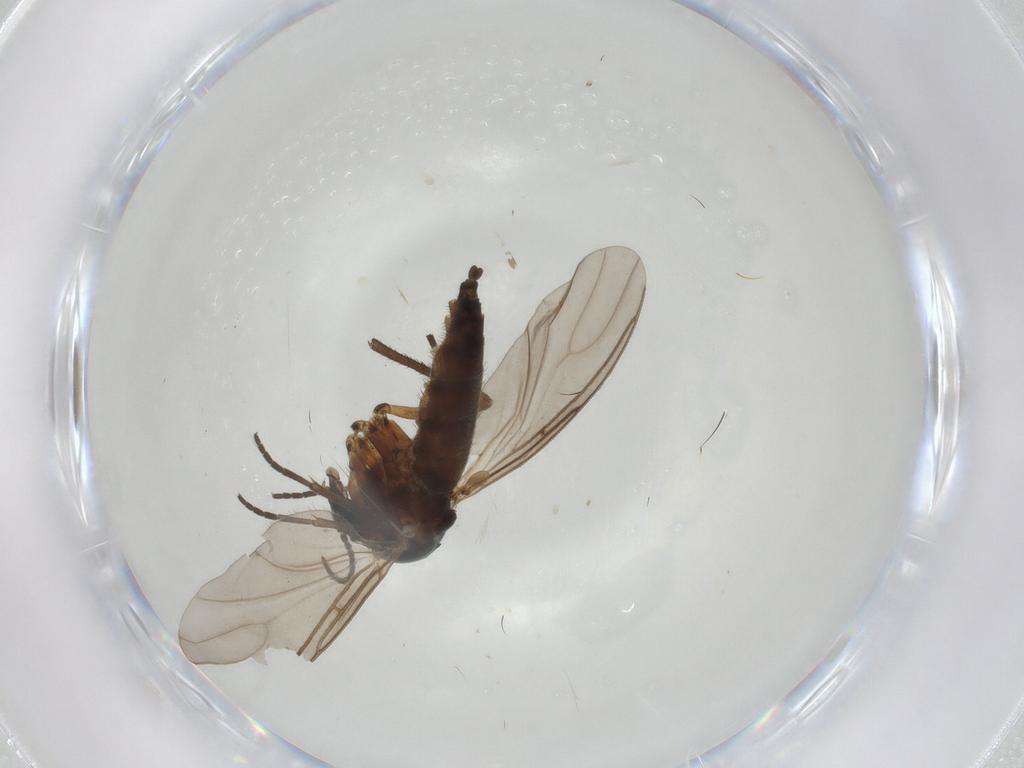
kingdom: Animalia
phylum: Arthropoda
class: Insecta
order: Diptera
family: Sciaridae
